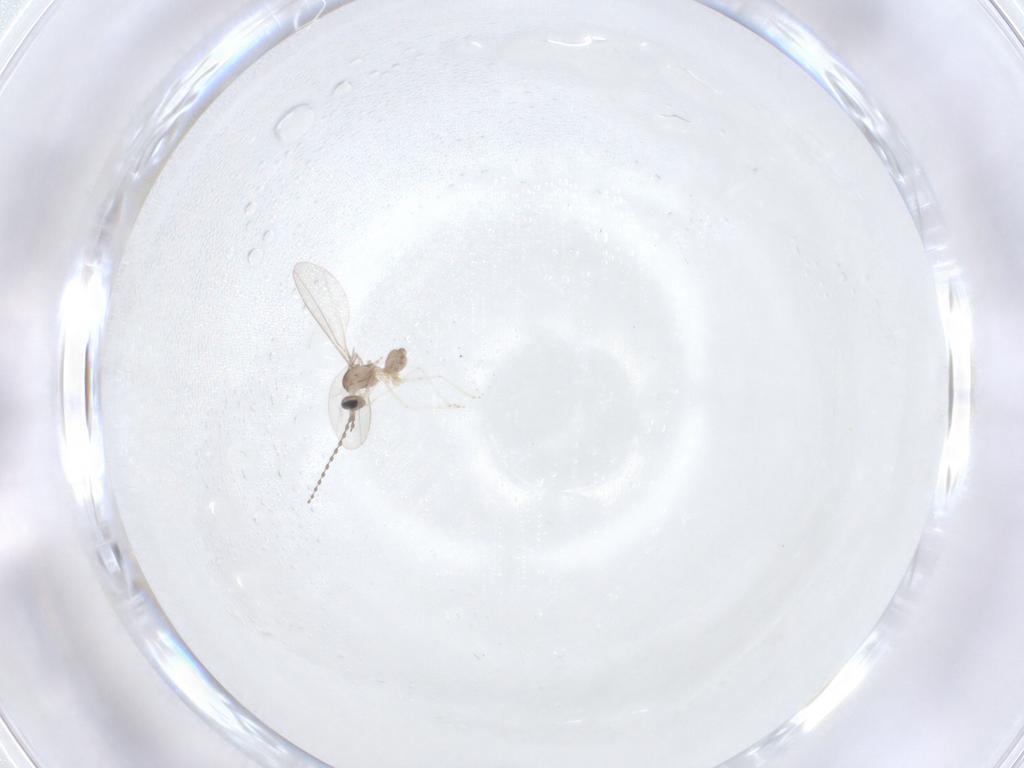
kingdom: Animalia
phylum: Arthropoda
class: Insecta
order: Diptera
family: Cecidomyiidae
